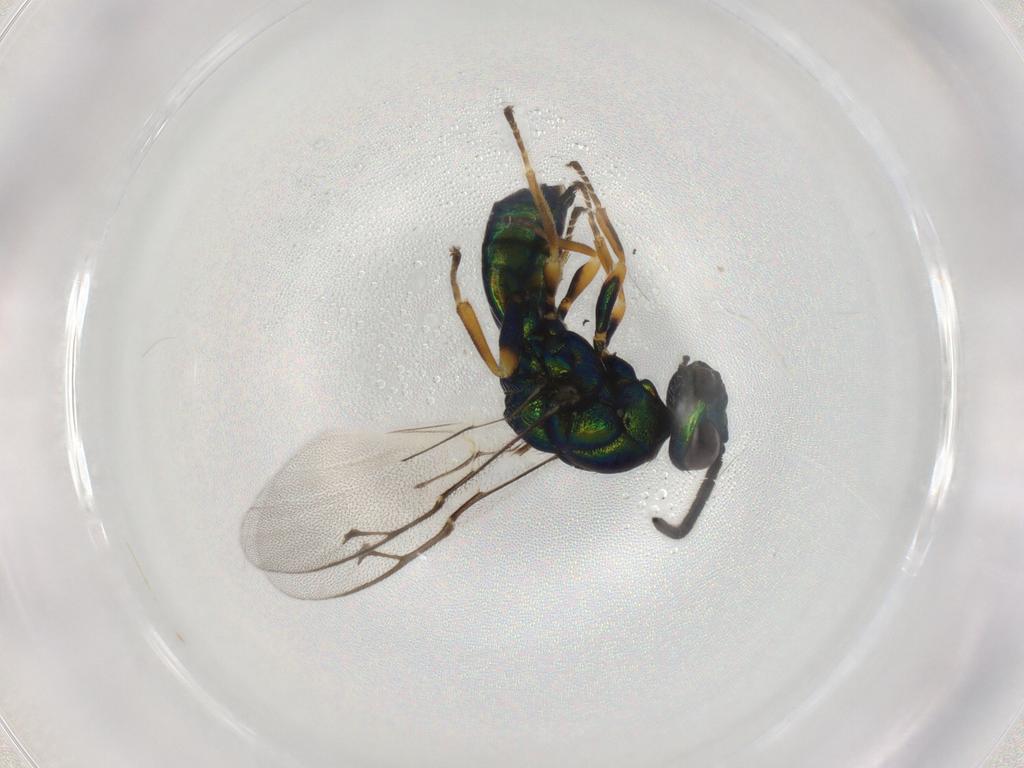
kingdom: Animalia
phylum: Arthropoda
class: Insecta
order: Hymenoptera
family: Pteromalidae
